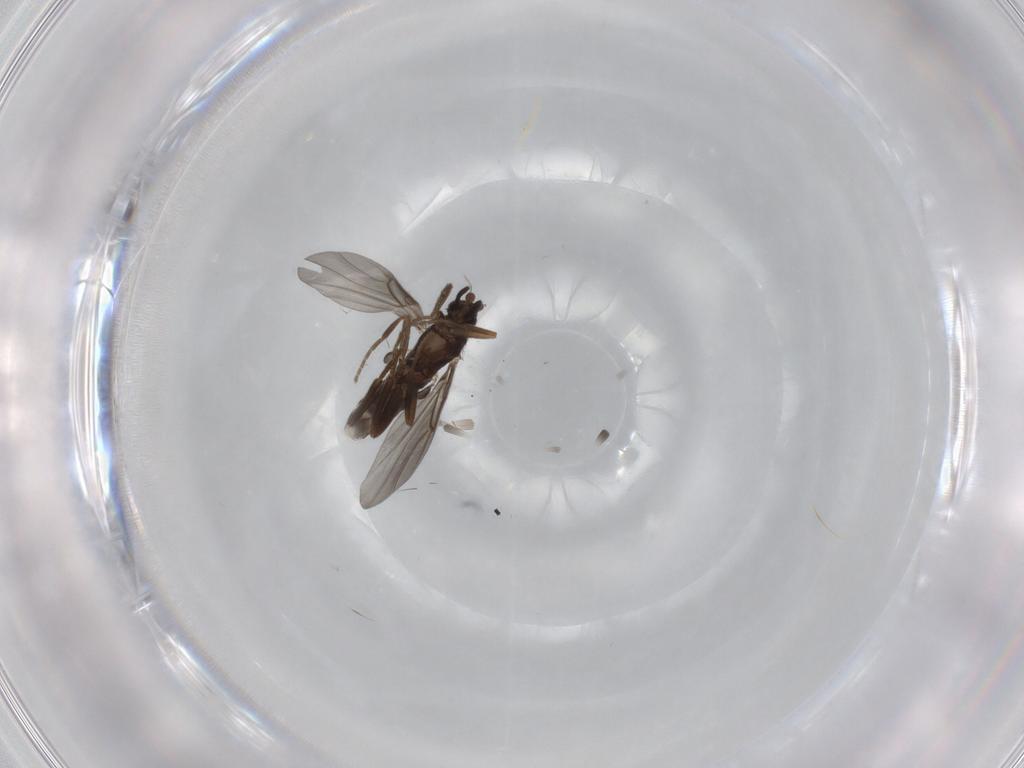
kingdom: Animalia
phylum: Arthropoda
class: Insecta
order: Diptera
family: Phoridae
